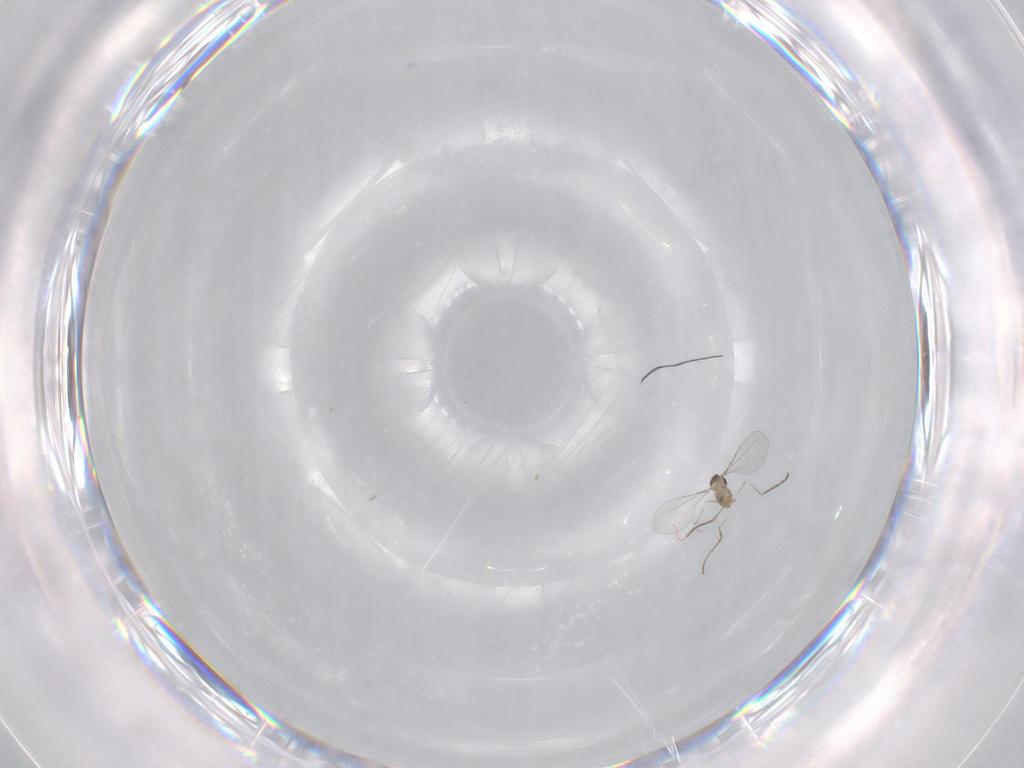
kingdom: Animalia
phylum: Arthropoda
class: Insecta
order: Diptera
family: Cecidomyiidae
